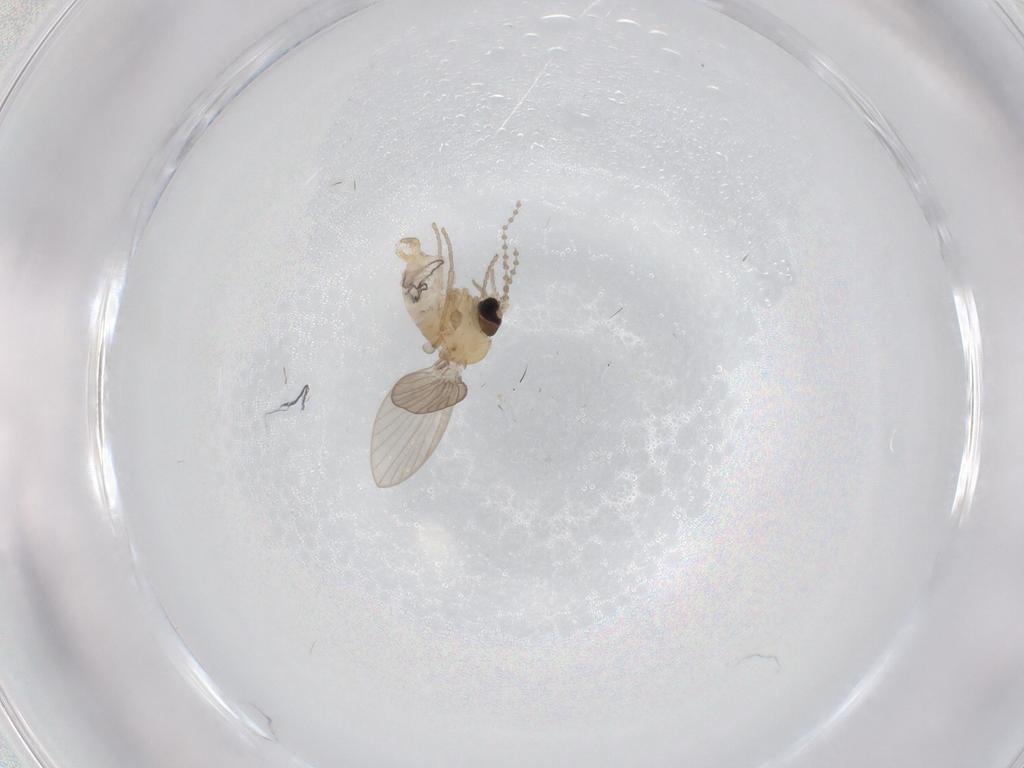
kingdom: Animalia
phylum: Arthropoda
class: Insecta
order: Diptera
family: Psychodidae
